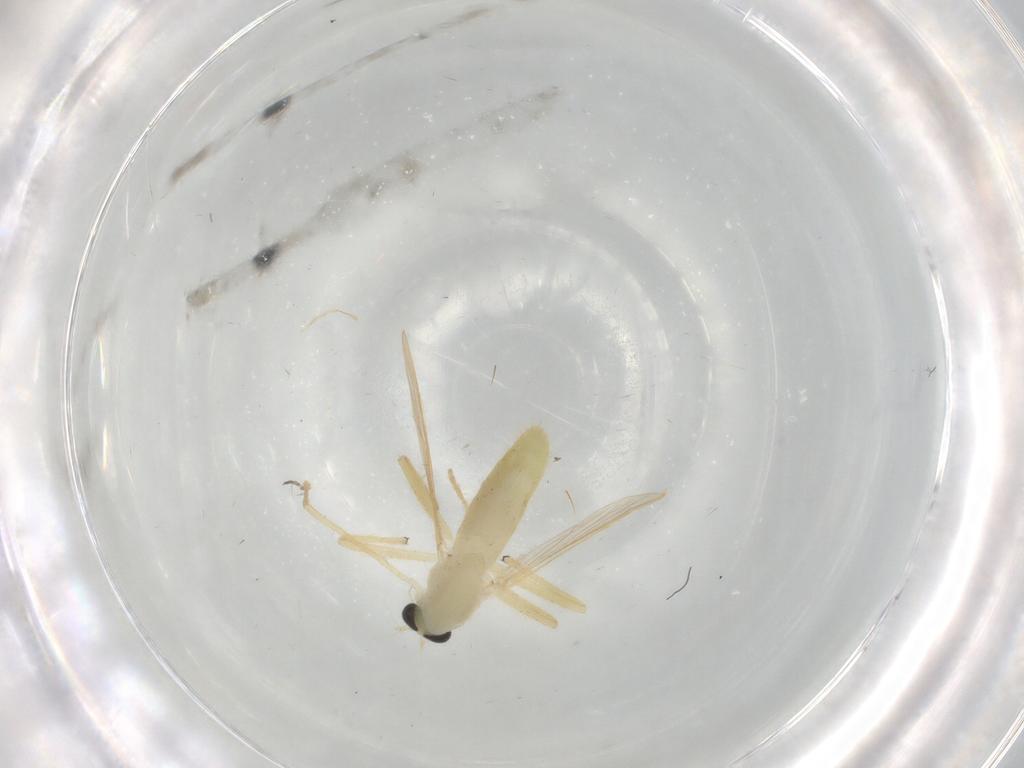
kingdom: Animalia
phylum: Arthropoda
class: Insecta
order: Diptera
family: Chironomidae
